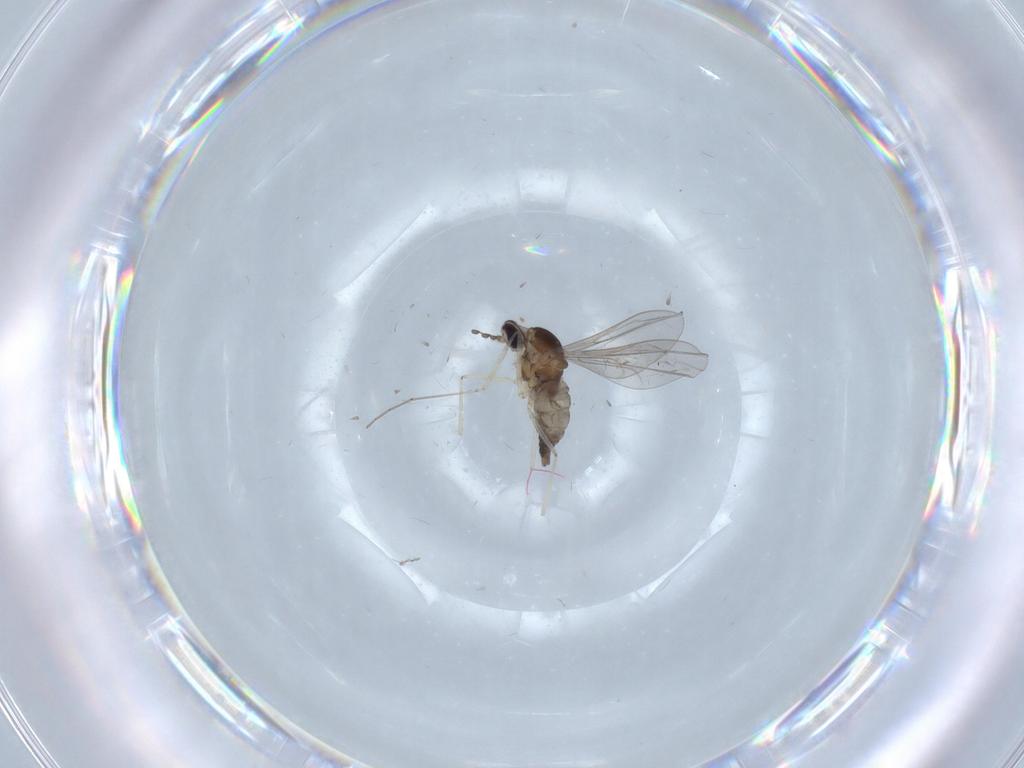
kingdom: Animalia
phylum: Arthropoda
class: Insecta
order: Diptera
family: Cecidomyiidae
